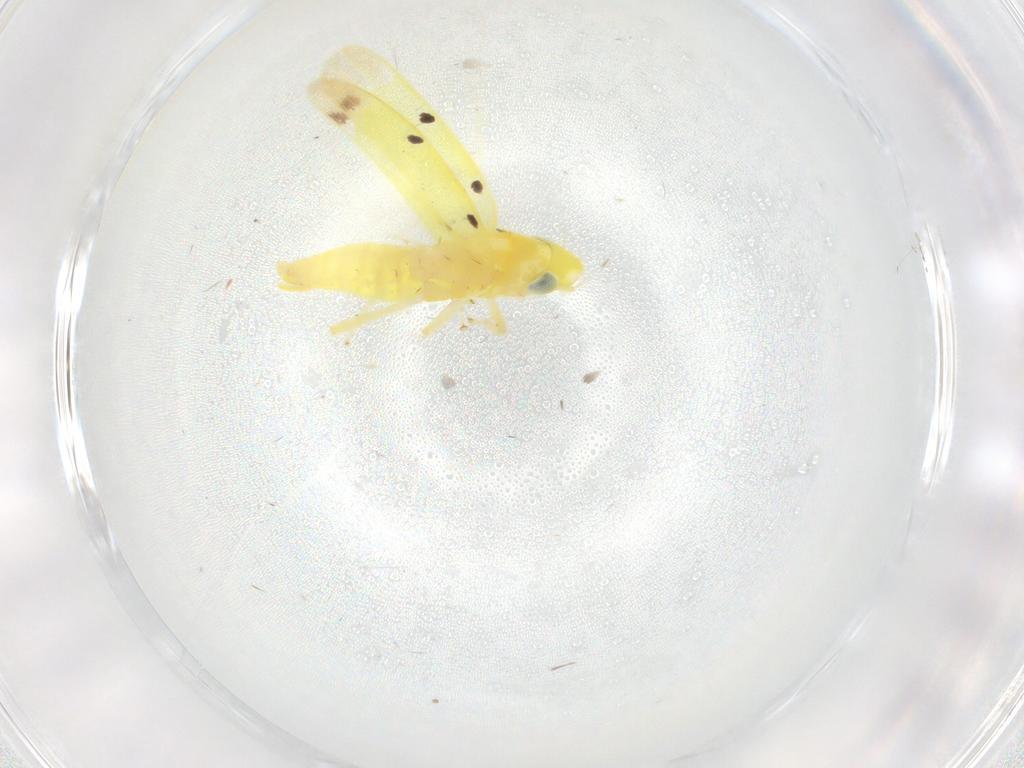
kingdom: Animalia
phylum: Arthropoda
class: Insecta
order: Hemiptera
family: Cicadellidae
